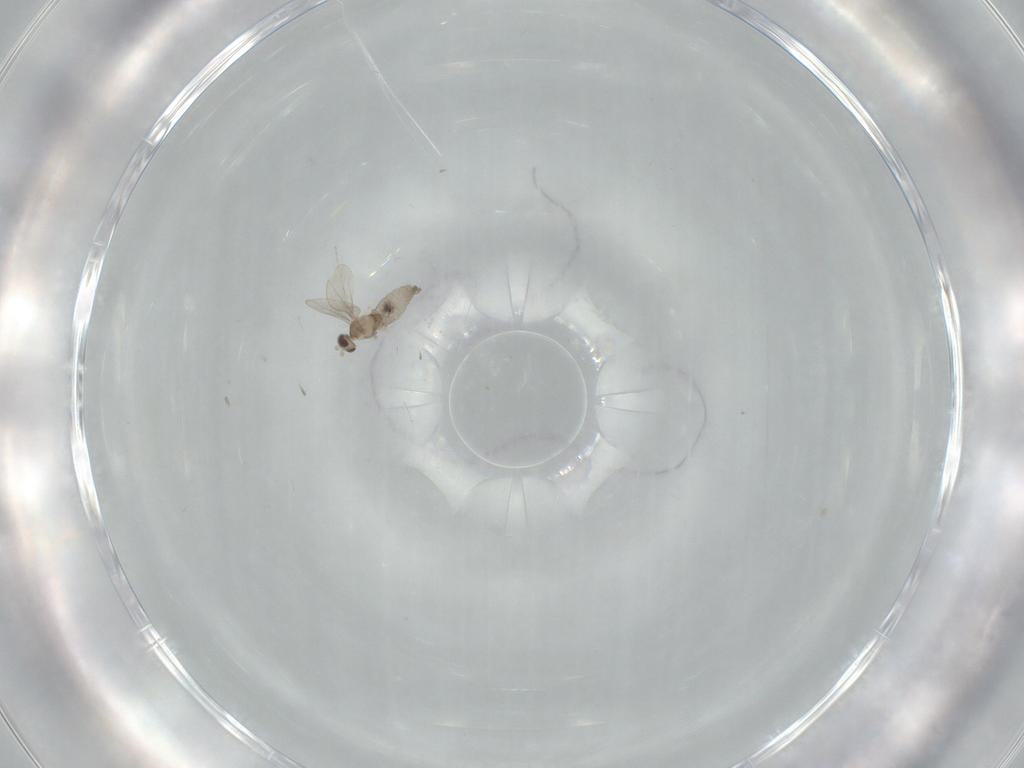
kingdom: Animalia
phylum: Arthropoda
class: Insecta
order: Diptera
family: Cecidomyiidae
